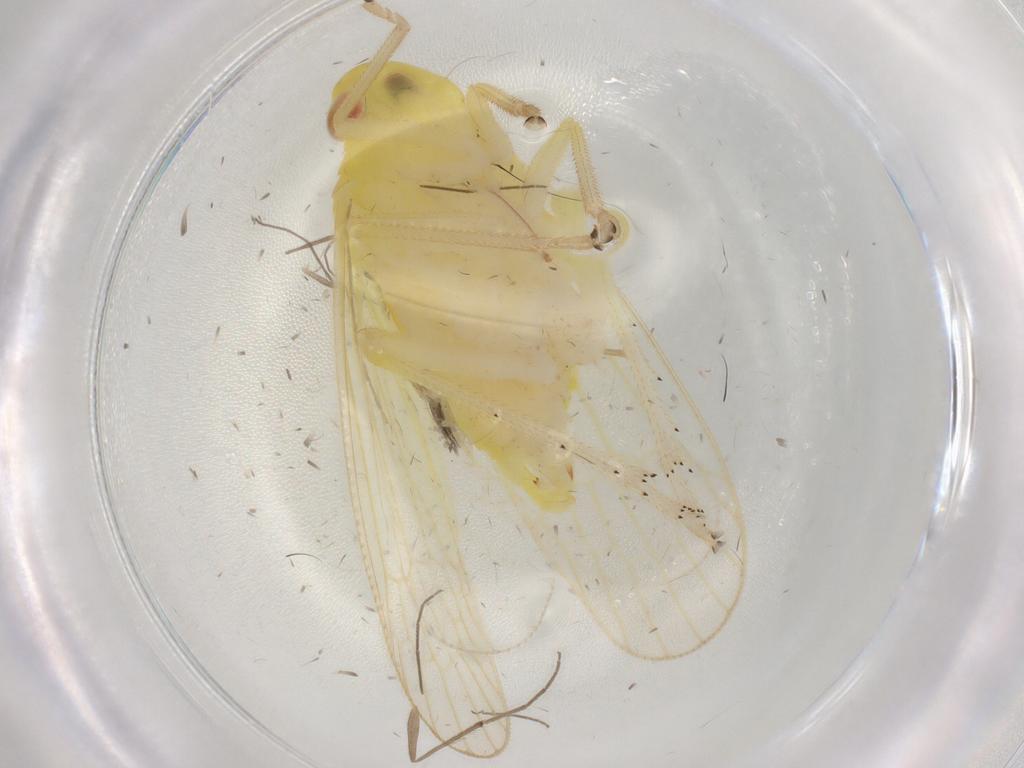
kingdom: Animalia
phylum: Arthropoda
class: Insecta
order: Hemiptera
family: Tropiduchidae
